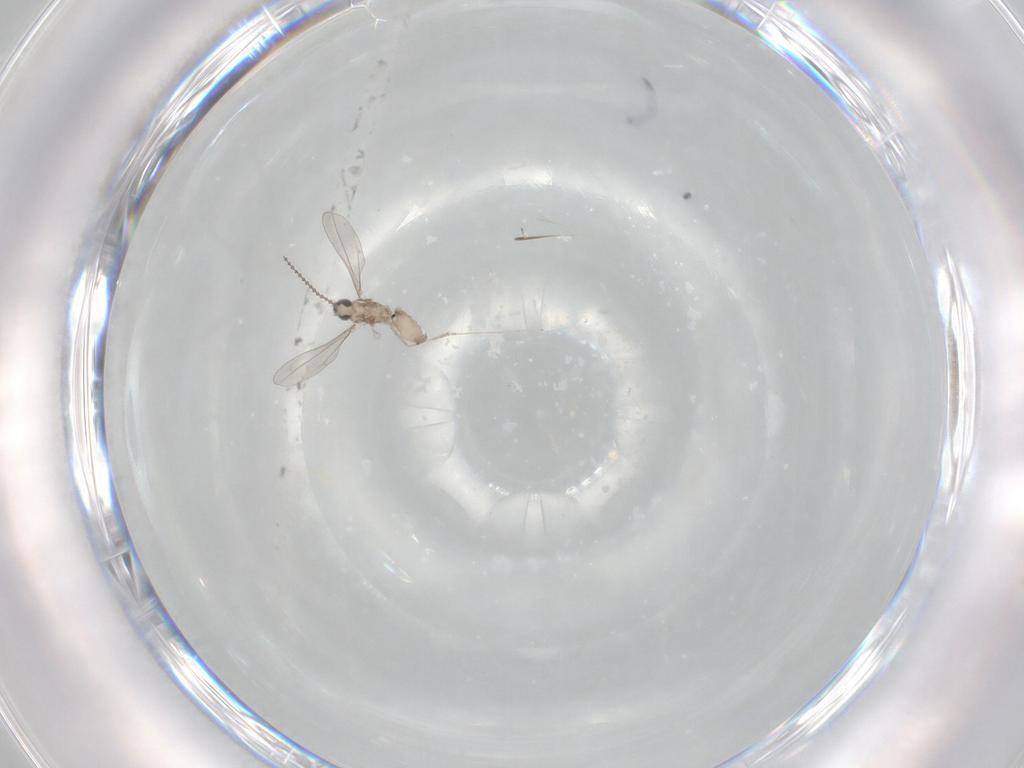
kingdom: Animalia
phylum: Arthropoda
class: Insecta
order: Diptera
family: Cecidomyiidae
